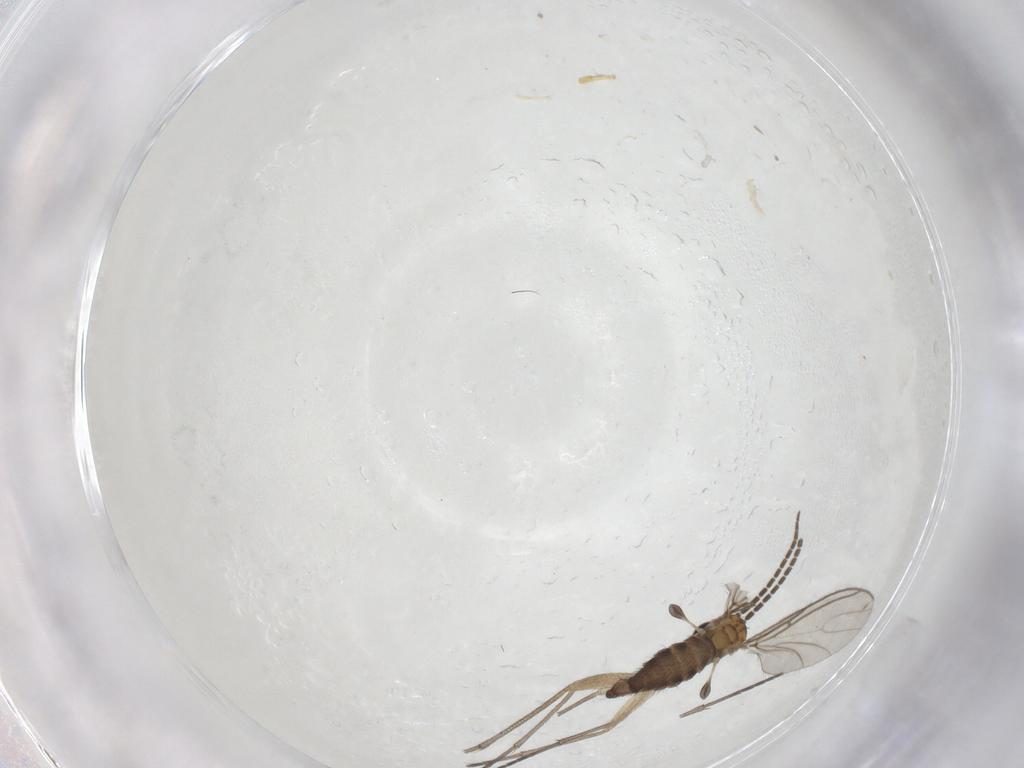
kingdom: Animalia
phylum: Arthropoda
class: Insecta
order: Diptera
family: Sciaridae
